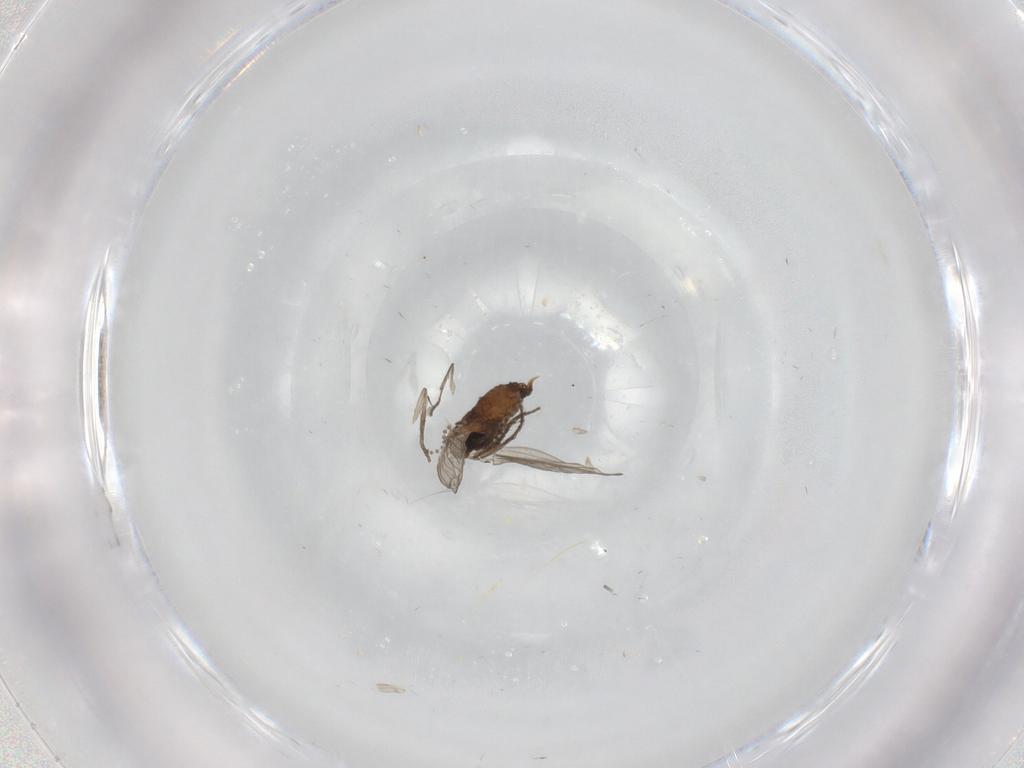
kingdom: Animalia
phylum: Arthropoda
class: Insecta
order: Diptera
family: Psychodidae
